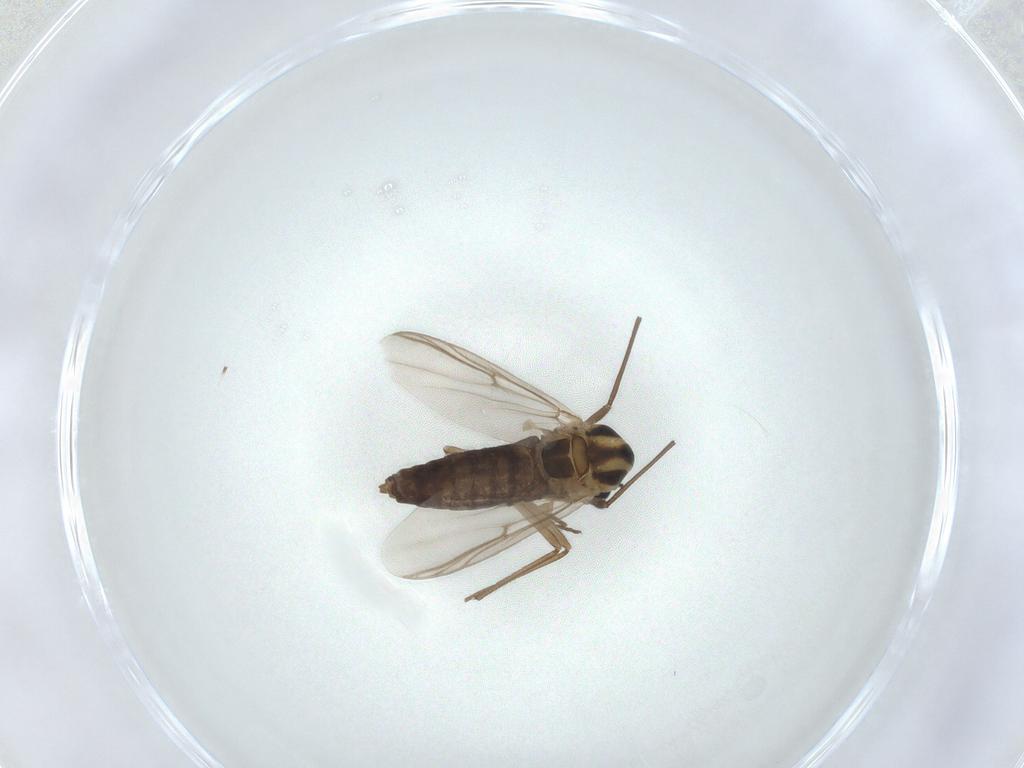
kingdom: Animalia
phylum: Arthropoda
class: Insecta
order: Diptera
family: Chironomidae
